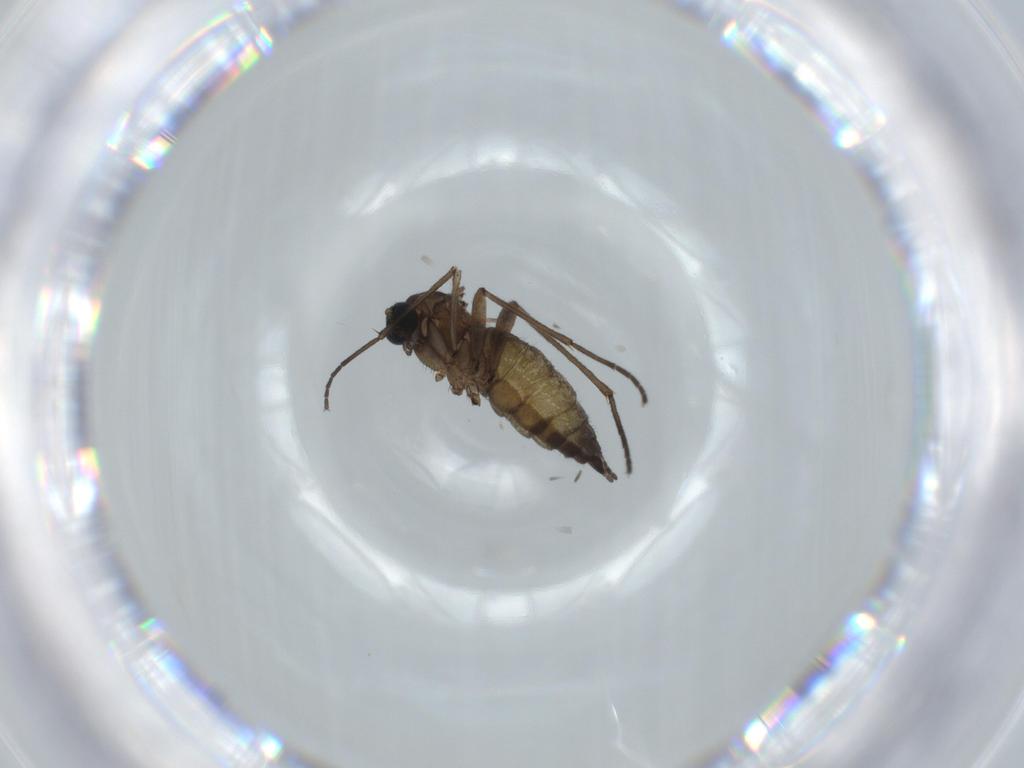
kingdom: Animalia
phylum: Arthropoda
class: Insecta
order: Diptera
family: Sciaridae
